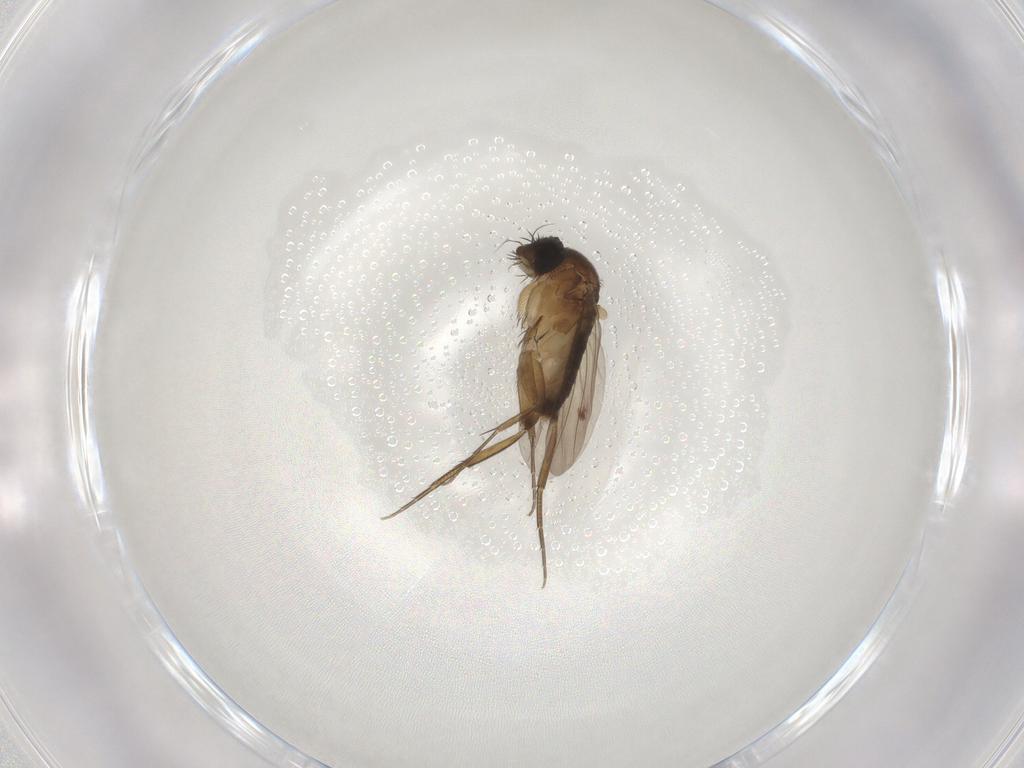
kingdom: Animalia
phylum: Arthropoda
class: Insecta
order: Diptera
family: Phoridae
